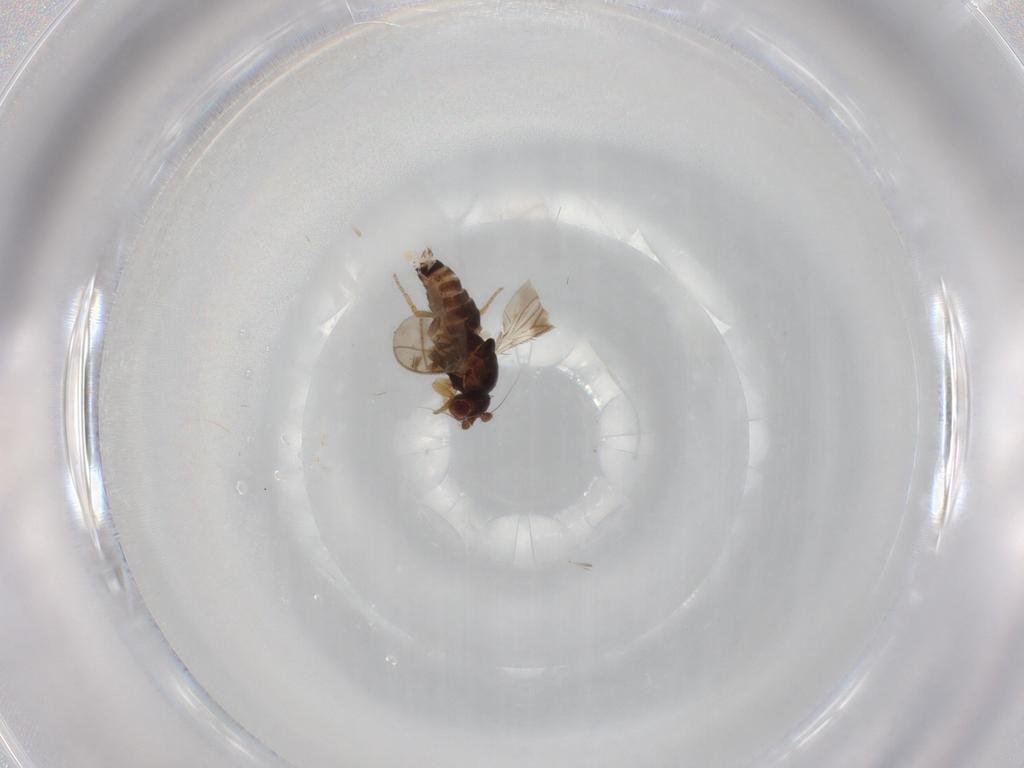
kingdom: Animalia
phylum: Arthropoda
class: Insecta
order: Diptera
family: Sphaeroceridae
